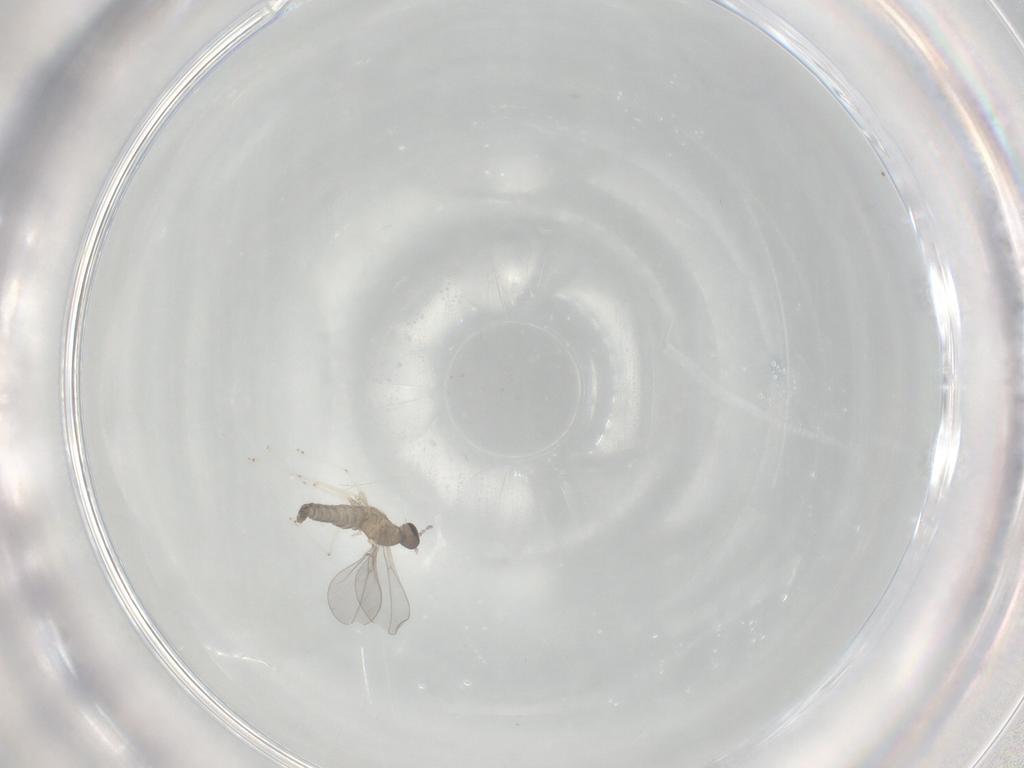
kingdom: Animalia
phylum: Arthropoda
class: Insecta
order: Diptera
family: Cecidomyiidae
